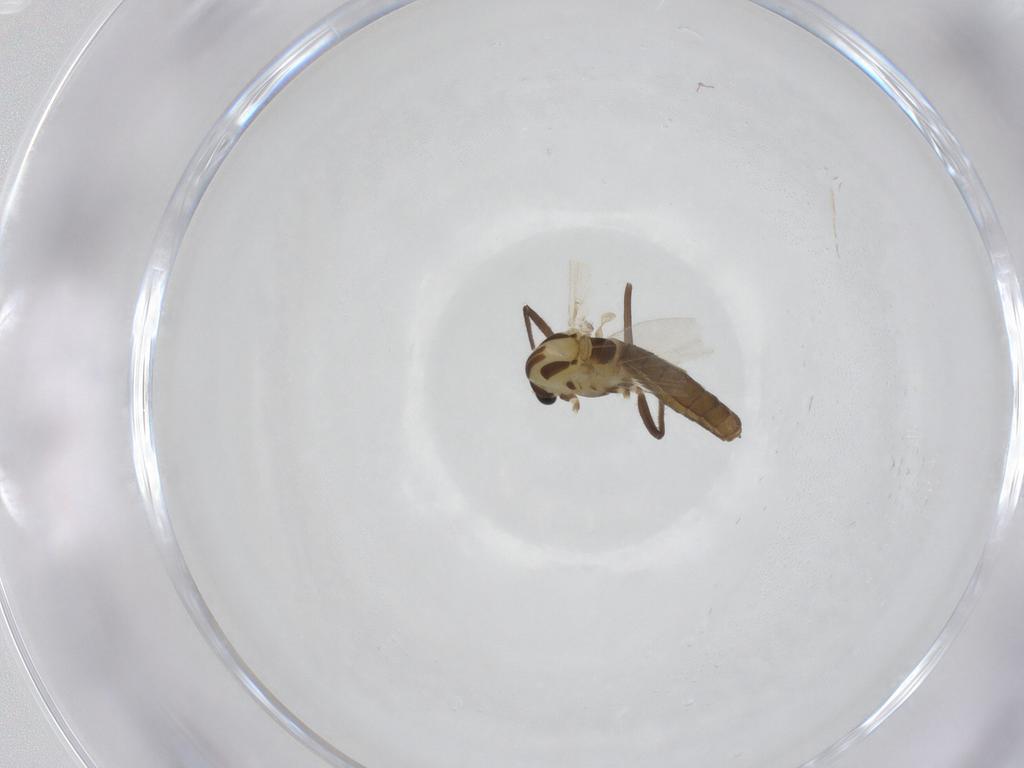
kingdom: Animalia
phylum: Arthropoda
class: Insecta
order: Diptera
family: Chironomidae
